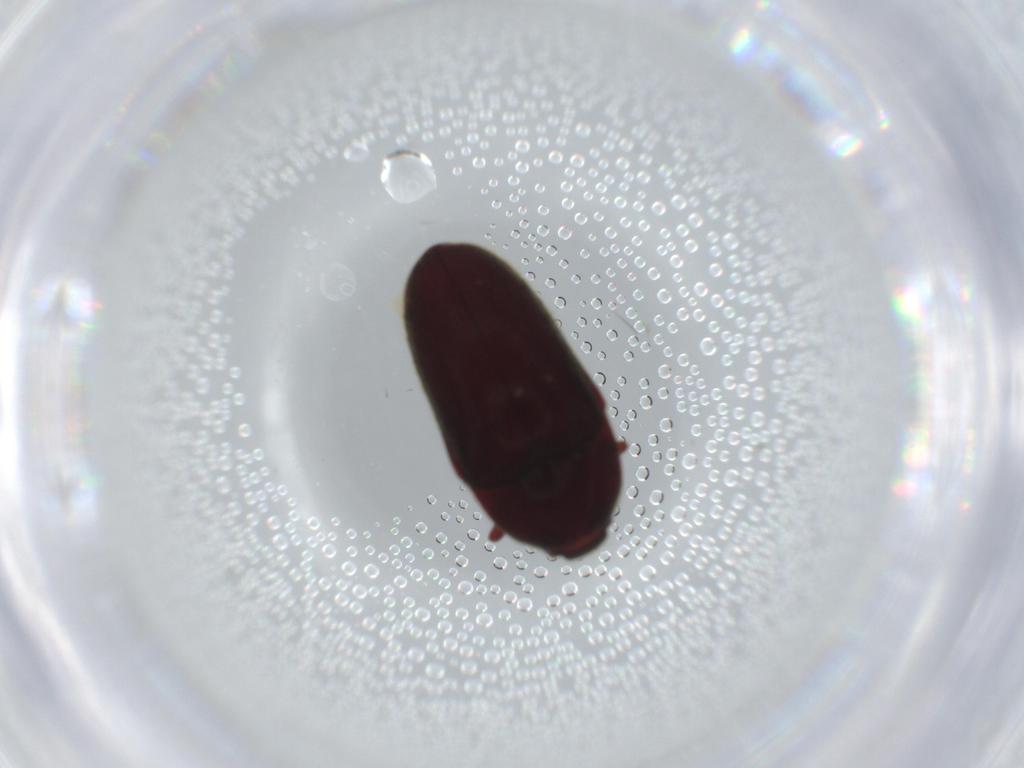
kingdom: Animalia
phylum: Arthropoda
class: Insecta
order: Coleoptera
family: Throscidae
